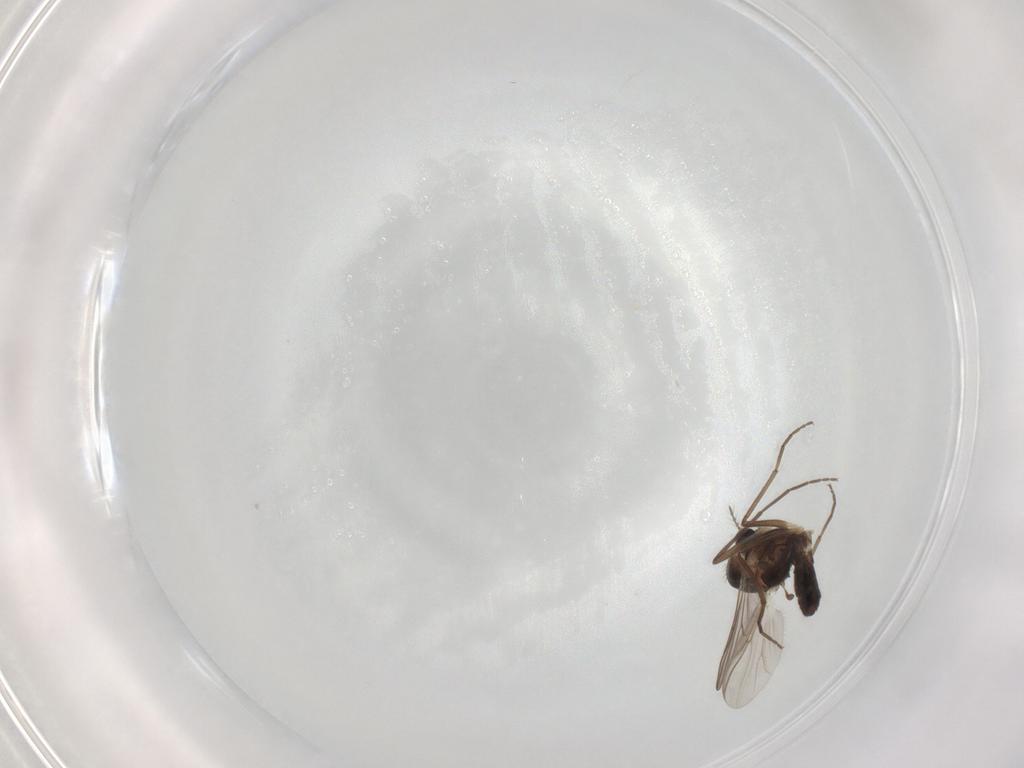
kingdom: Animalia
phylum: Arthropoda
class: Insecta
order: Diptera
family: Chironomidae
